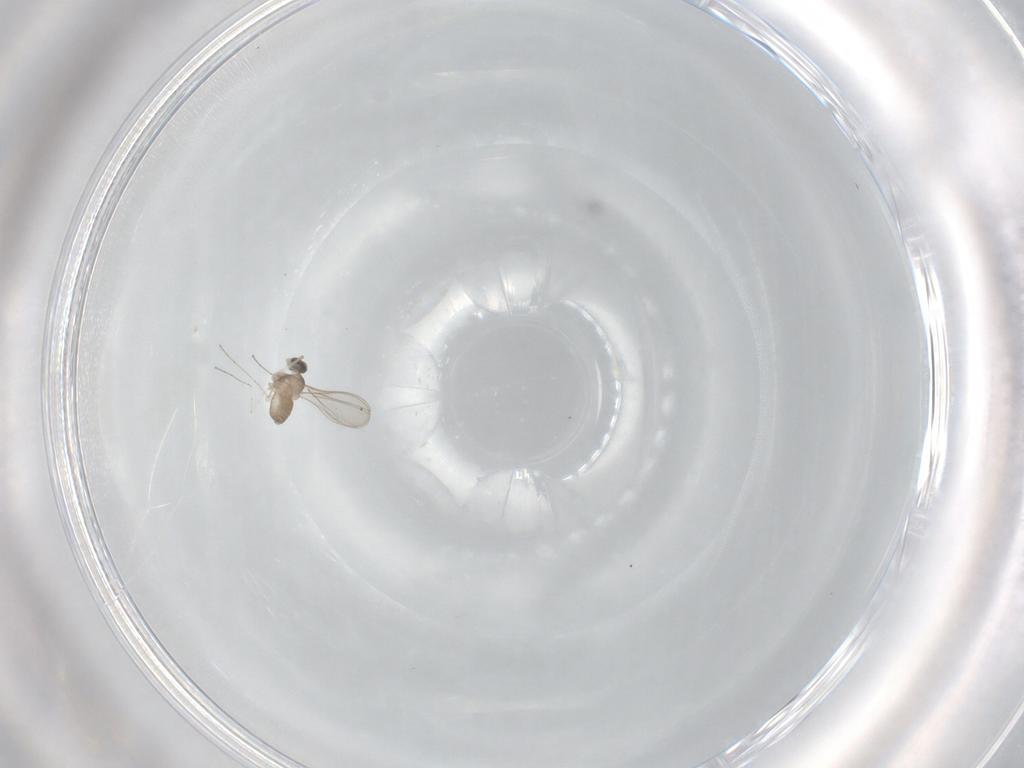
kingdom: Animalia
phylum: Arthropoda
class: Insecta
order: Diptera
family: Cecidomyiidae
